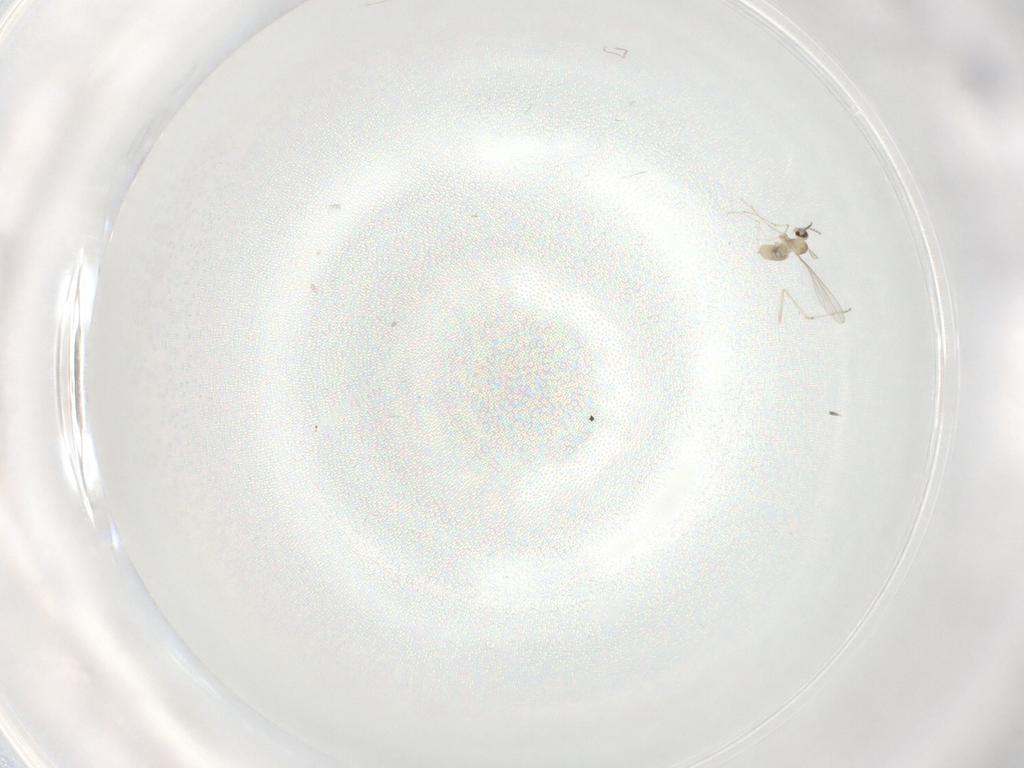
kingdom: Animalia
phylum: Arthropoda
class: Insecta
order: Diptera
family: Cecidomyiidae
